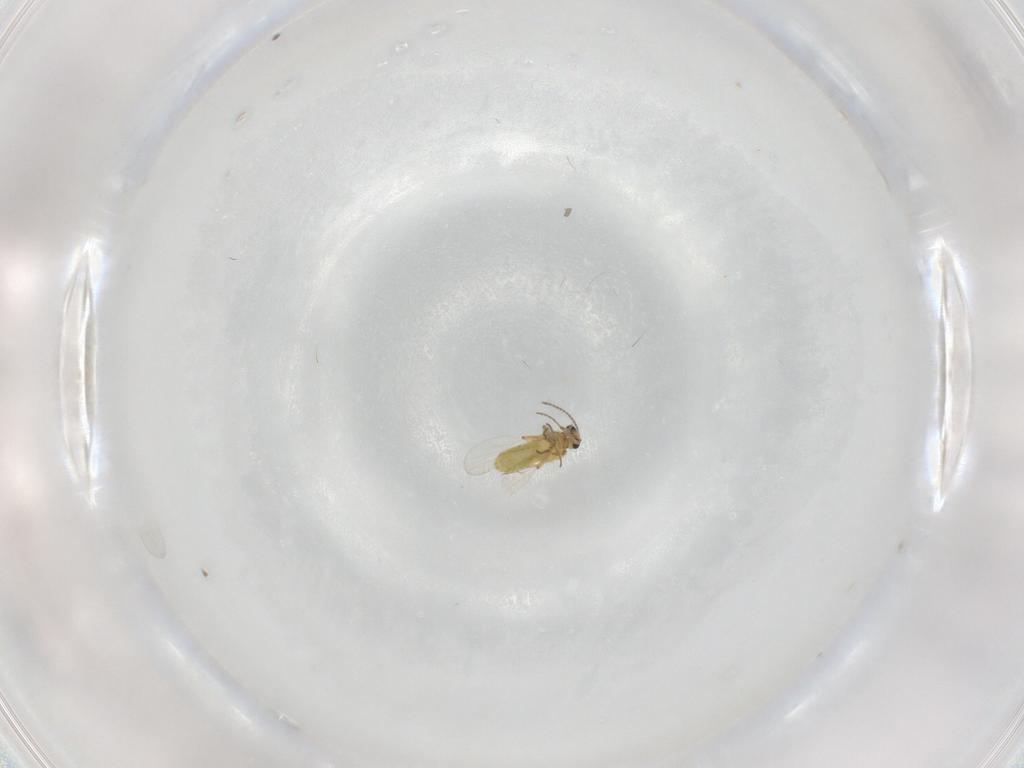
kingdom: Animalia
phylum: Arthropoda
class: Insecta
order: Diptera
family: Ceratopogonidae
